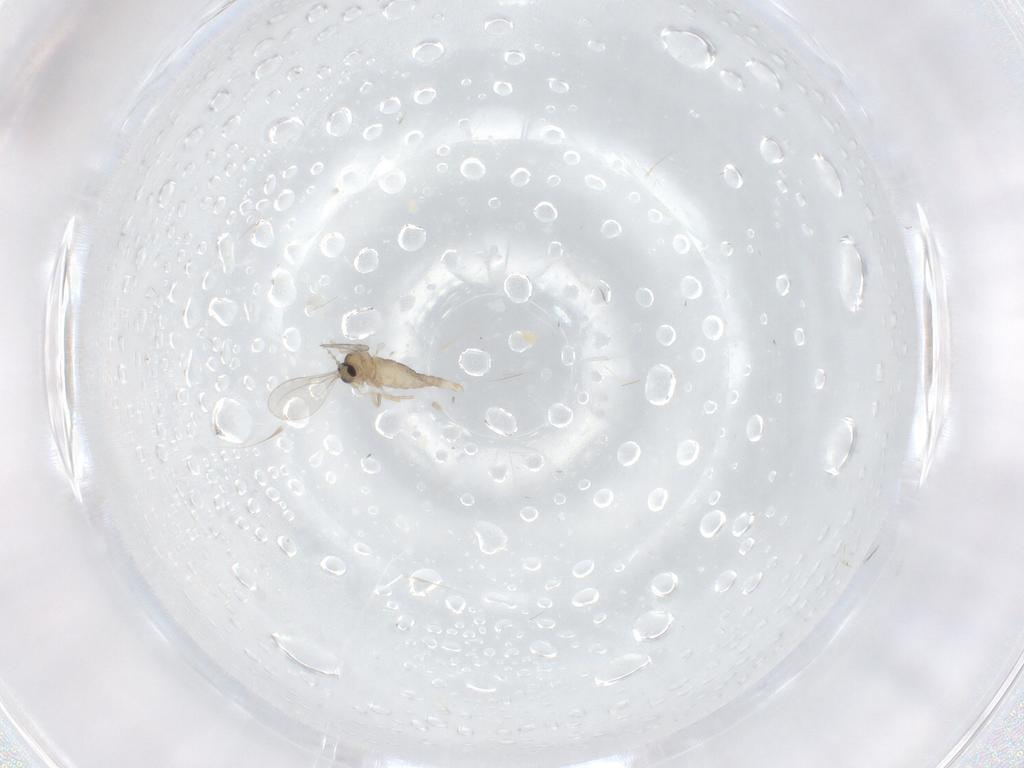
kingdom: Animalia
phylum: Arthropoda
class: Insecta
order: Diptera
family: Cecidomyiidae
